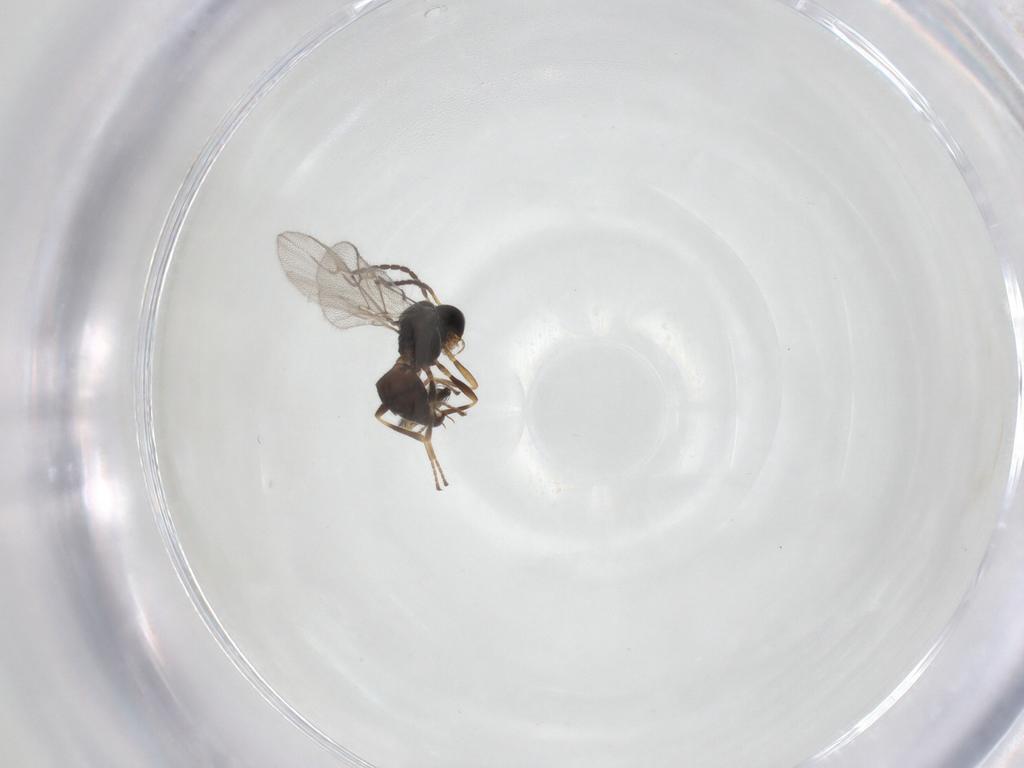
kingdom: Animalia
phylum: Arthropoda
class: Insecta
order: Hymenoptera
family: Braconidae
